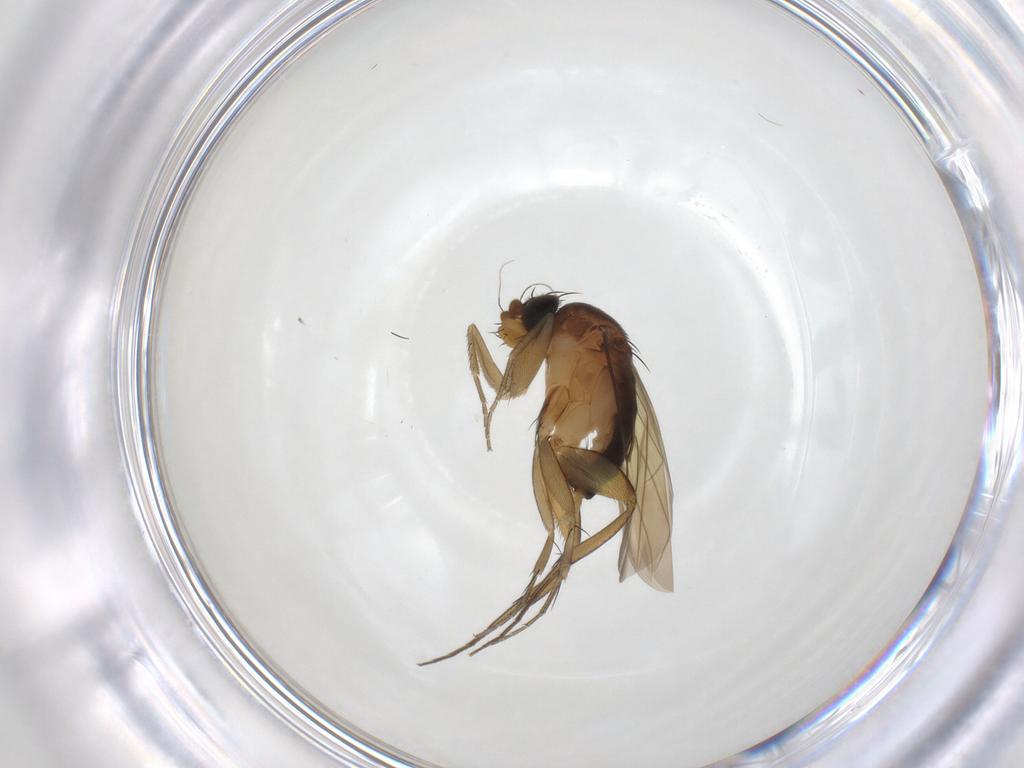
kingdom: Animalia
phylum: Arthropoda
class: Insecta
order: Diptera
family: Phoridae
